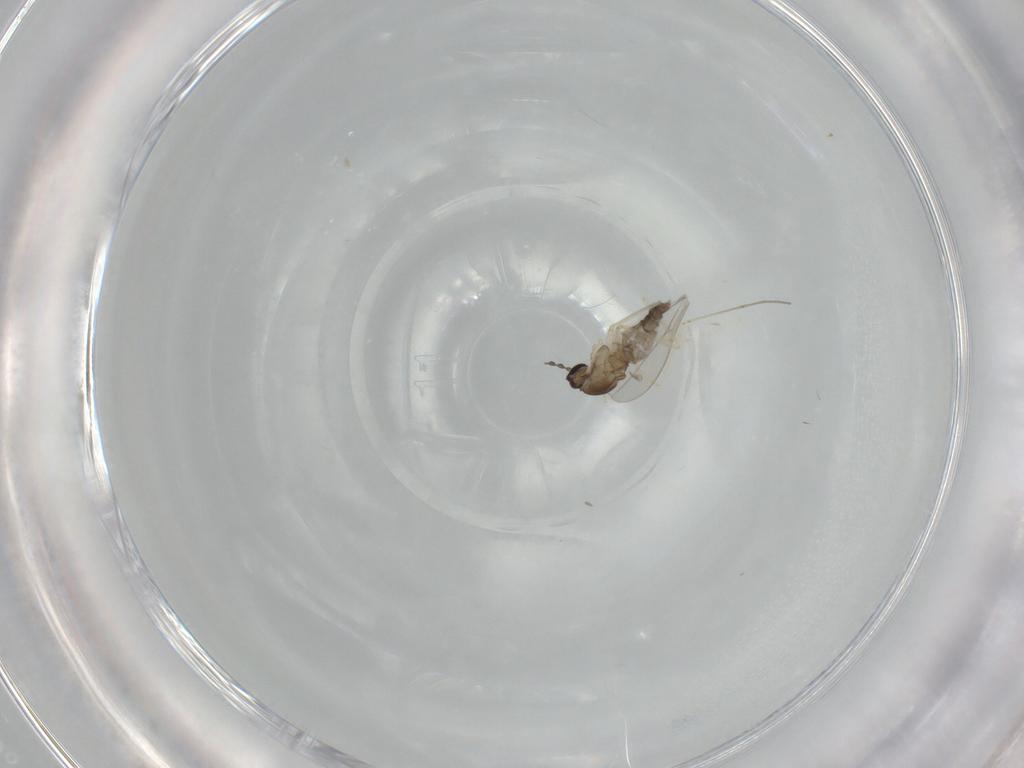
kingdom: Animalia
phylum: Arthropoda
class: Insecta
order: Diptera
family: Cecidomyiidae
